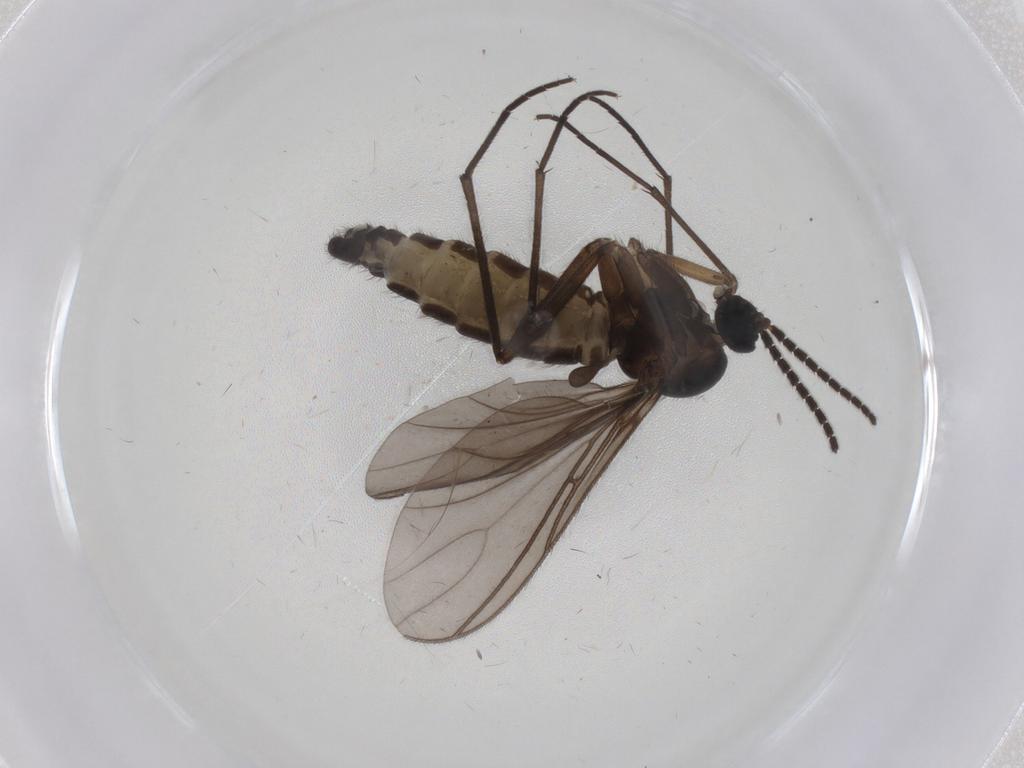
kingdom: Animalia
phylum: Arthropoda
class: Insecta
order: Diptera
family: Sciaridae
